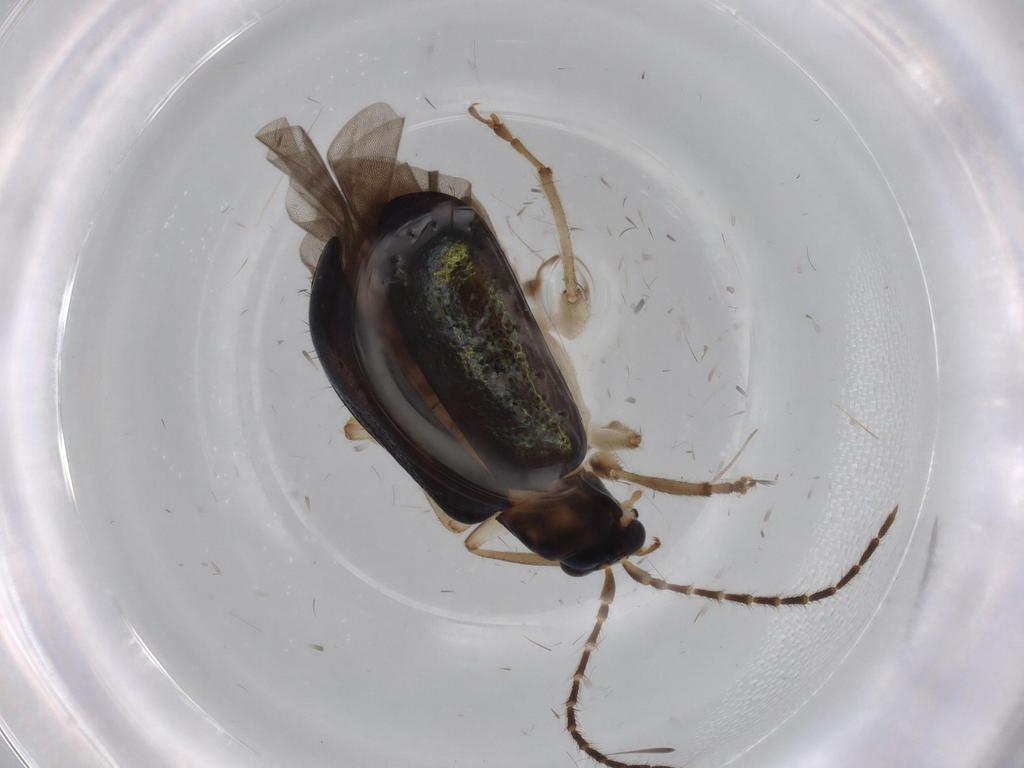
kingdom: Animalia
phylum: Arthropoda
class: Insecta
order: Coleoptera
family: Chrysomelidae
